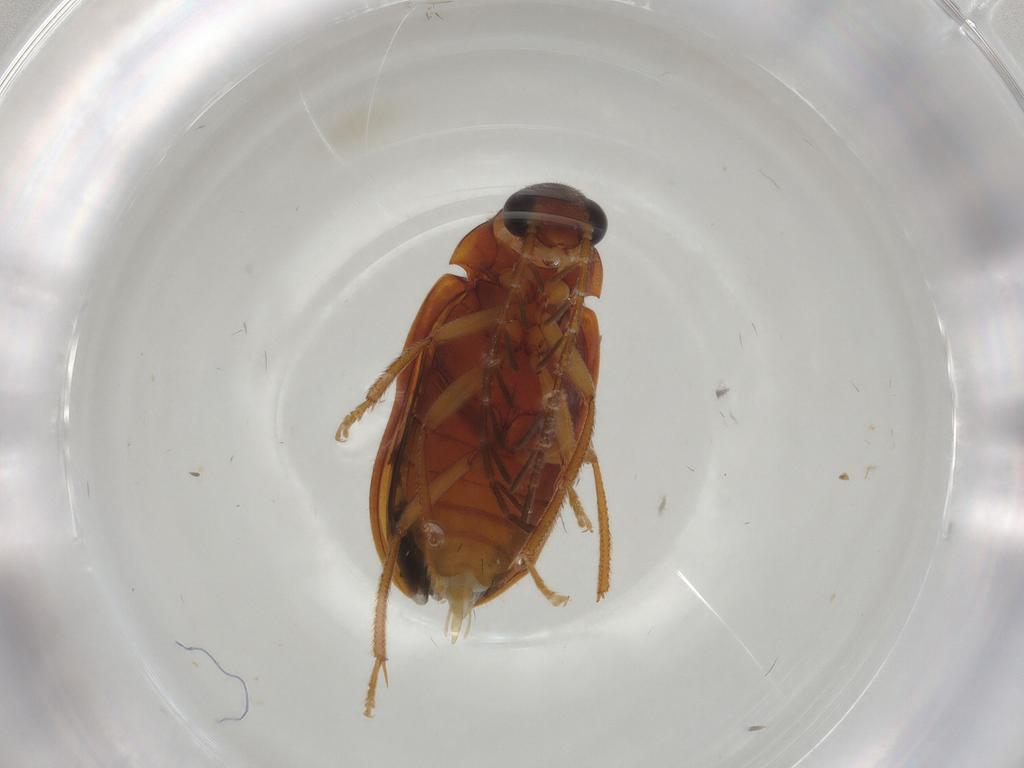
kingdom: Animalia
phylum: Arthropoda
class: Insecta
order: Coleoptera
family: Ptilodactylidae
